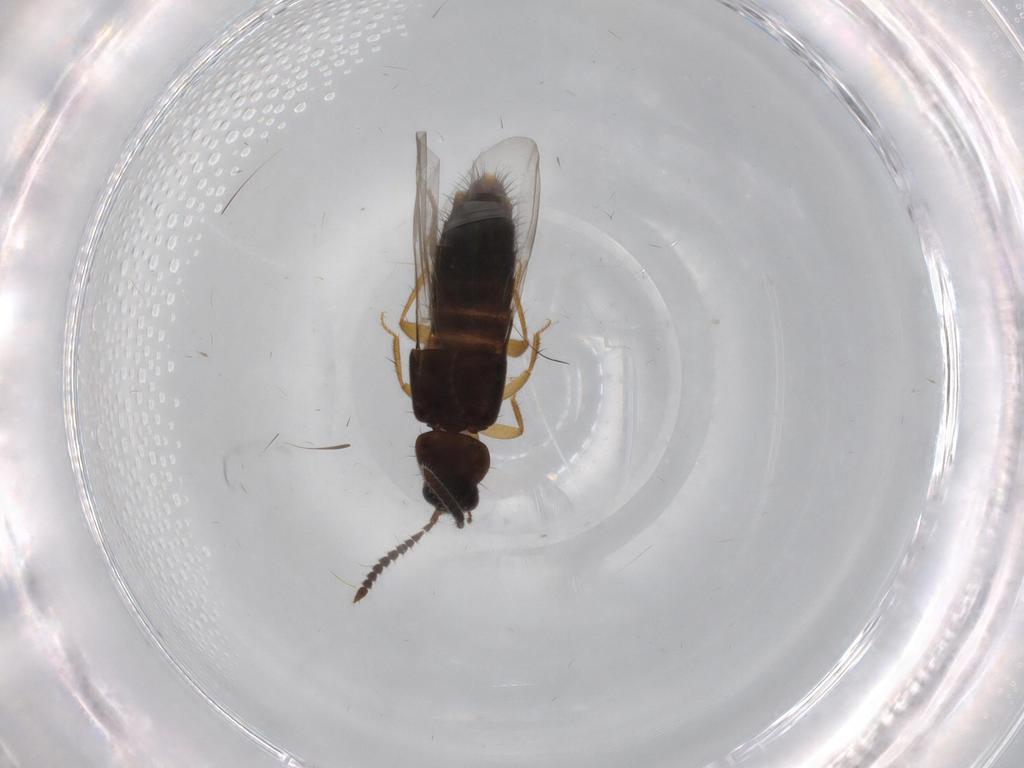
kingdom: Animalia
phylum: Arthropoda
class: Insecta
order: Coleoptera
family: Staphylinidae
